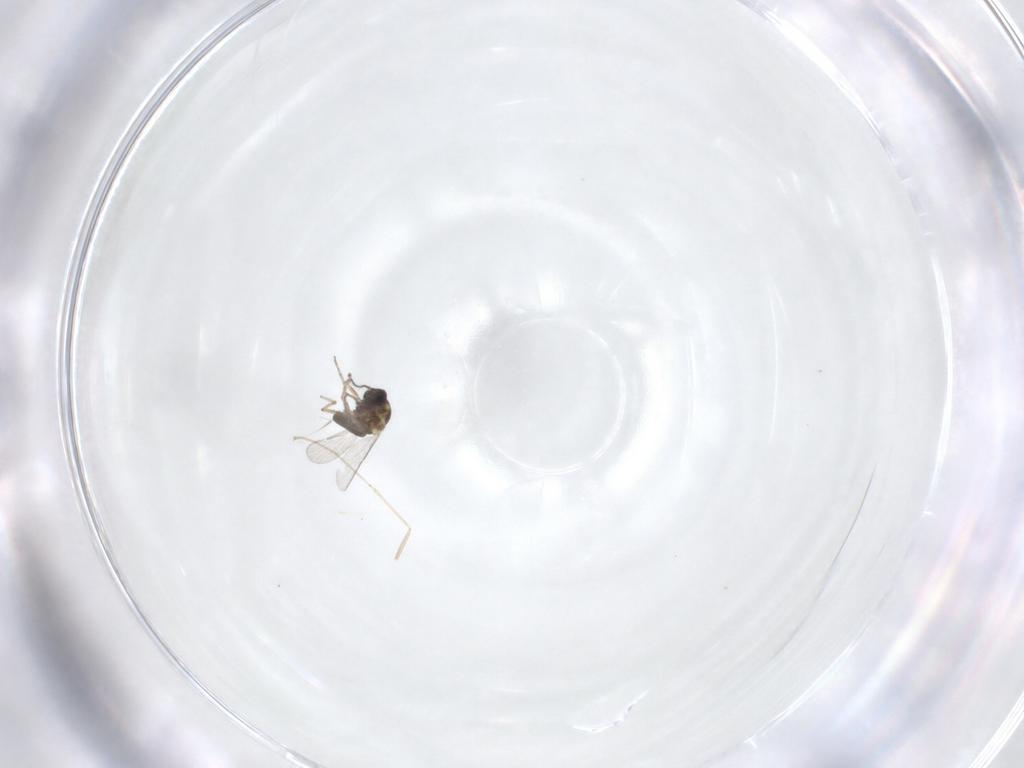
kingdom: Animalia
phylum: Arthropoda
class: Insecta
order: Diptera
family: Ceratopogonidae
